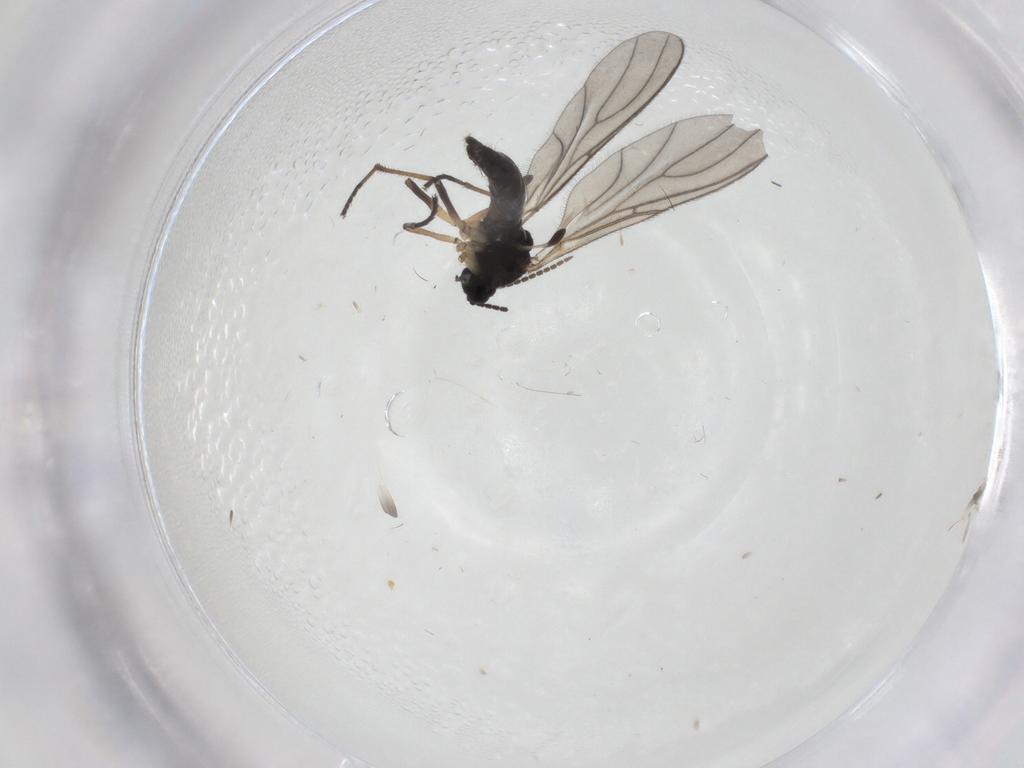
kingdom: Animalia
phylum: Arthropoda
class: Insecta
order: Diptera
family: Sciaridae
